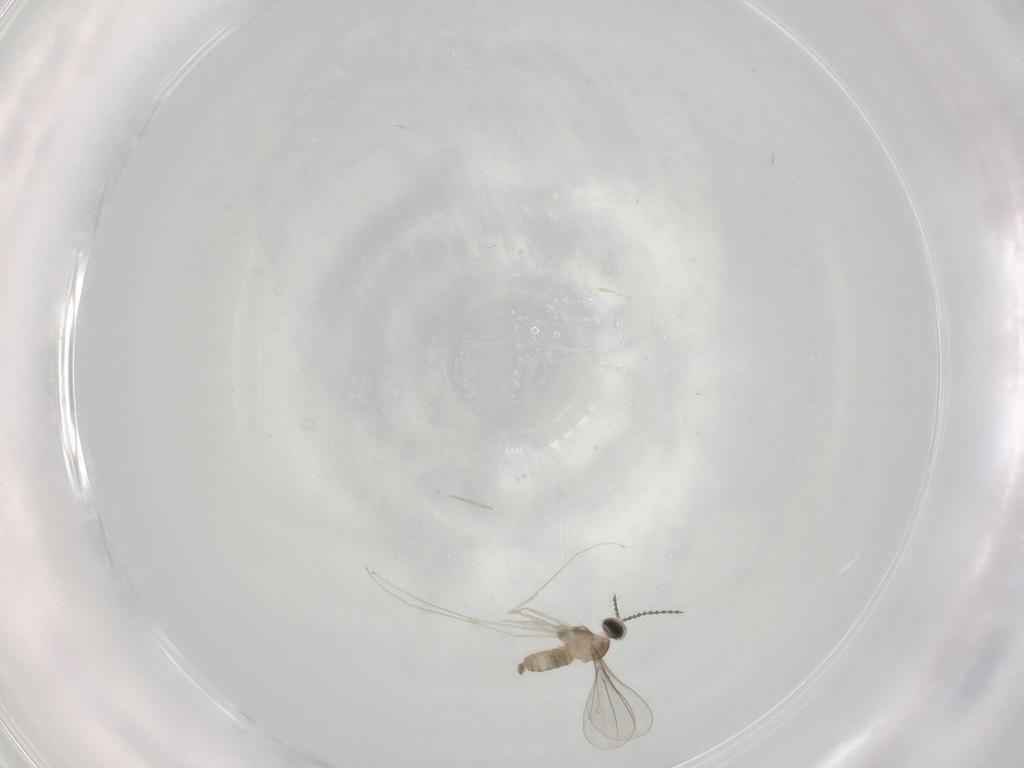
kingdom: Animalia
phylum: Arthropoda
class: Insecta
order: Diptera
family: Cecidomyiidae
